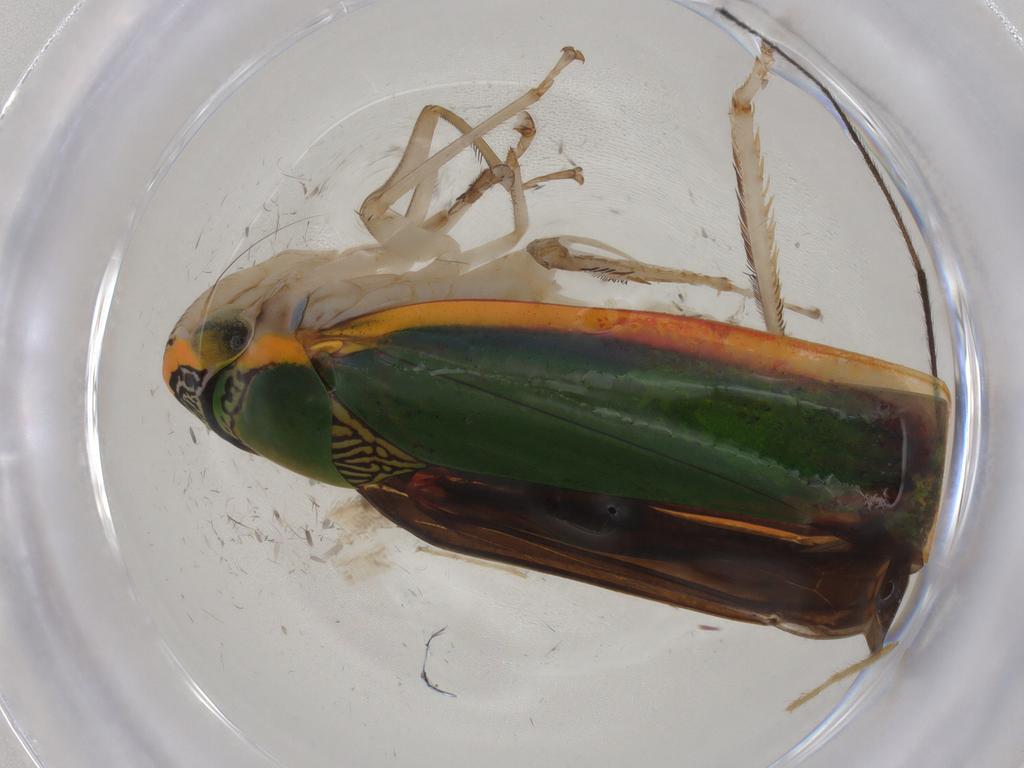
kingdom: Animalia
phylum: Arthropoda
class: Insecta
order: Hemiptera
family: Cicadellidae
